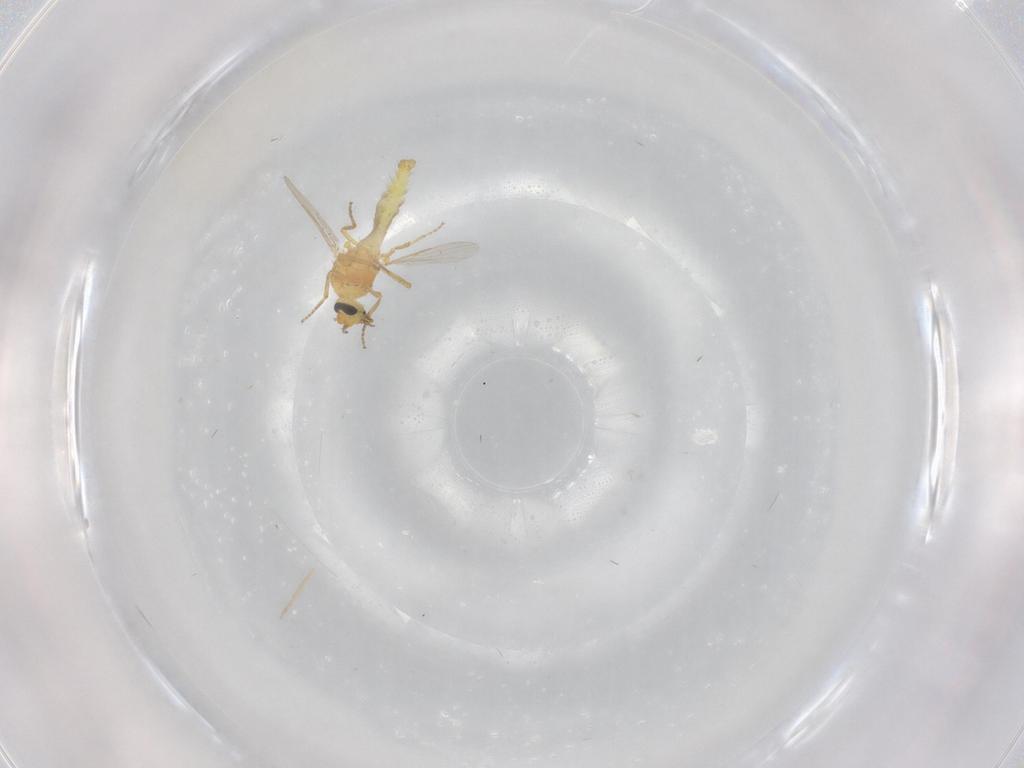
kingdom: Animalia
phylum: Arthropoda
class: Insecta
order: Diptera
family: Ceratopogonidae
